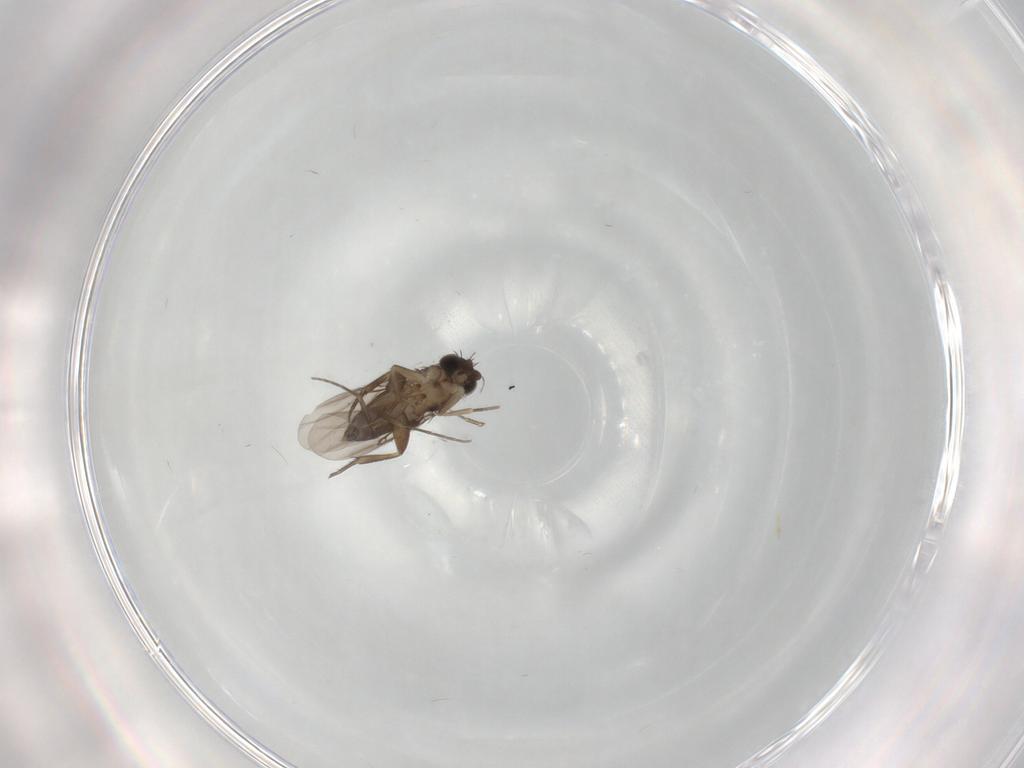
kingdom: Animalia
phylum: Arthropoda
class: Insecta
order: Diptera
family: Phoridae
